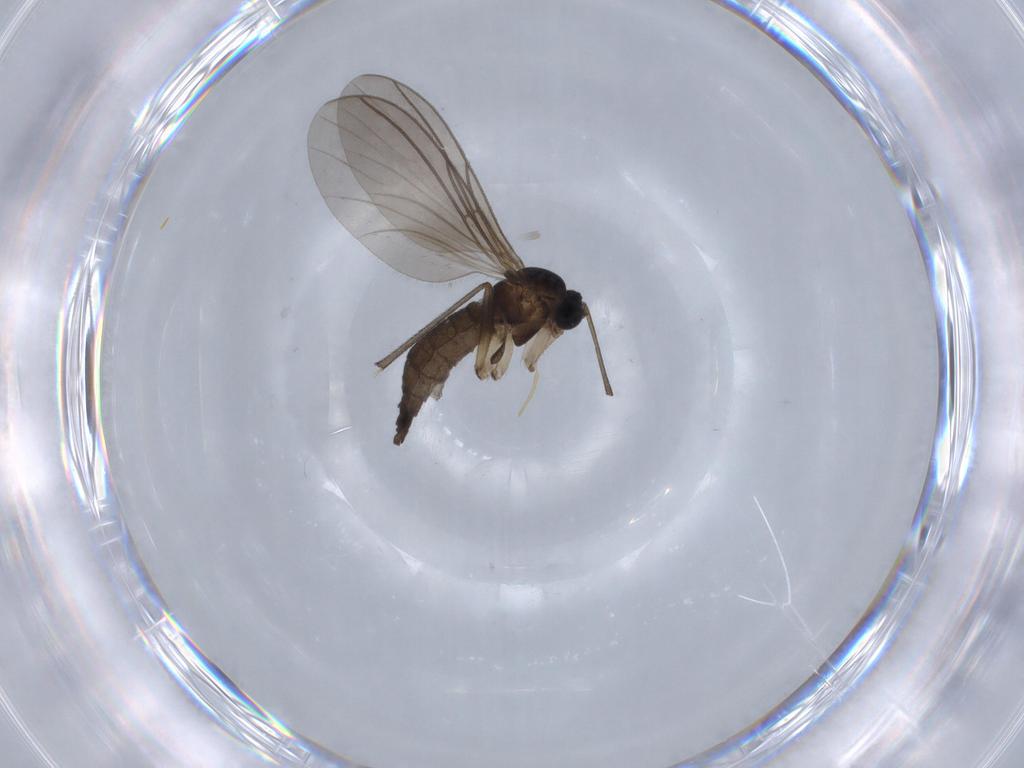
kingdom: Animalia
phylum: Arthropoda
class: Insecta
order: Diptera
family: Sciaridae
